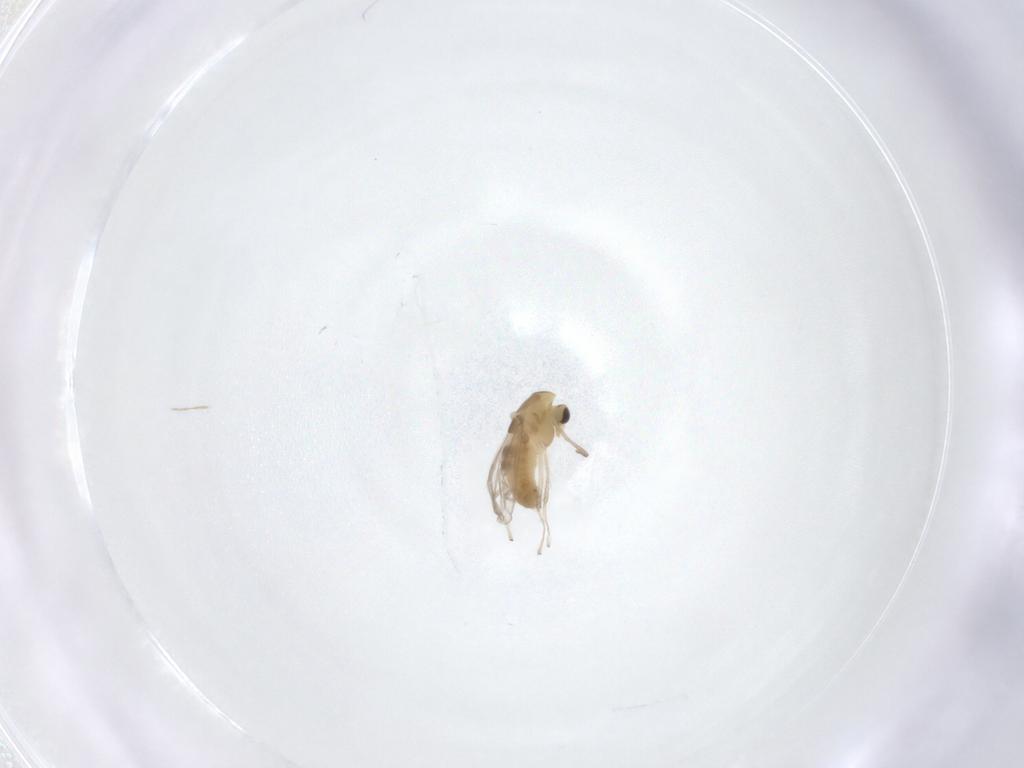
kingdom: Animalia
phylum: Arthropoda
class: Insecta
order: Diptera
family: Chironomidae
